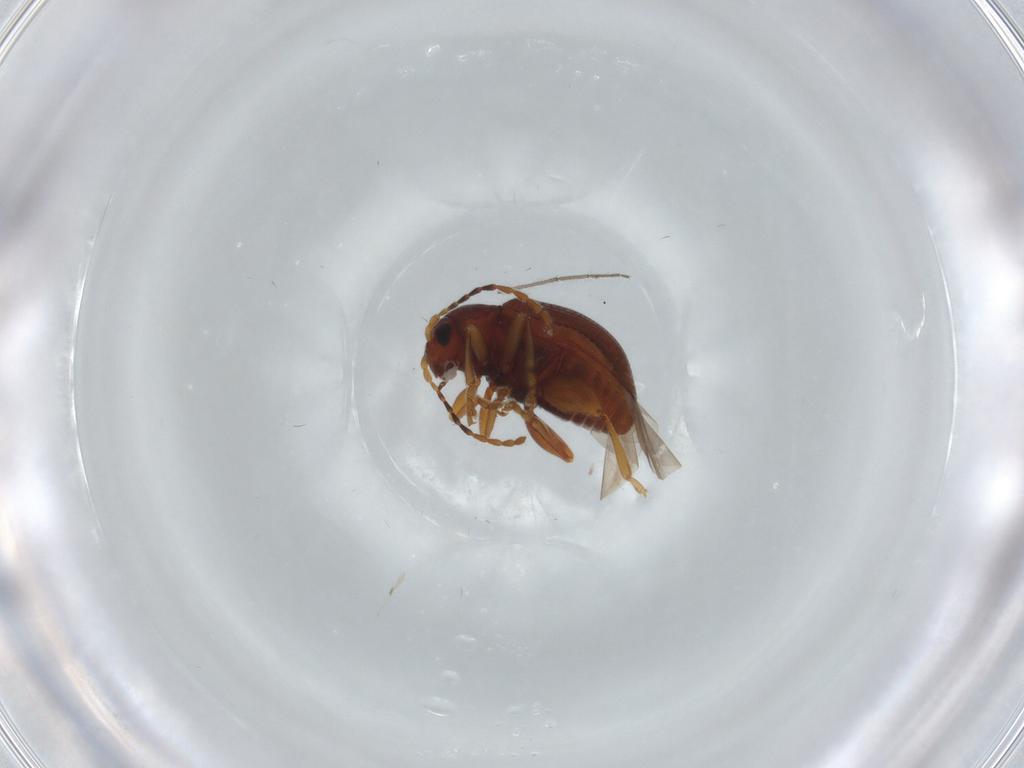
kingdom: Animalia
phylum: Arthropoda
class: Insecta
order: Coleoptera
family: Chrysomelidae
